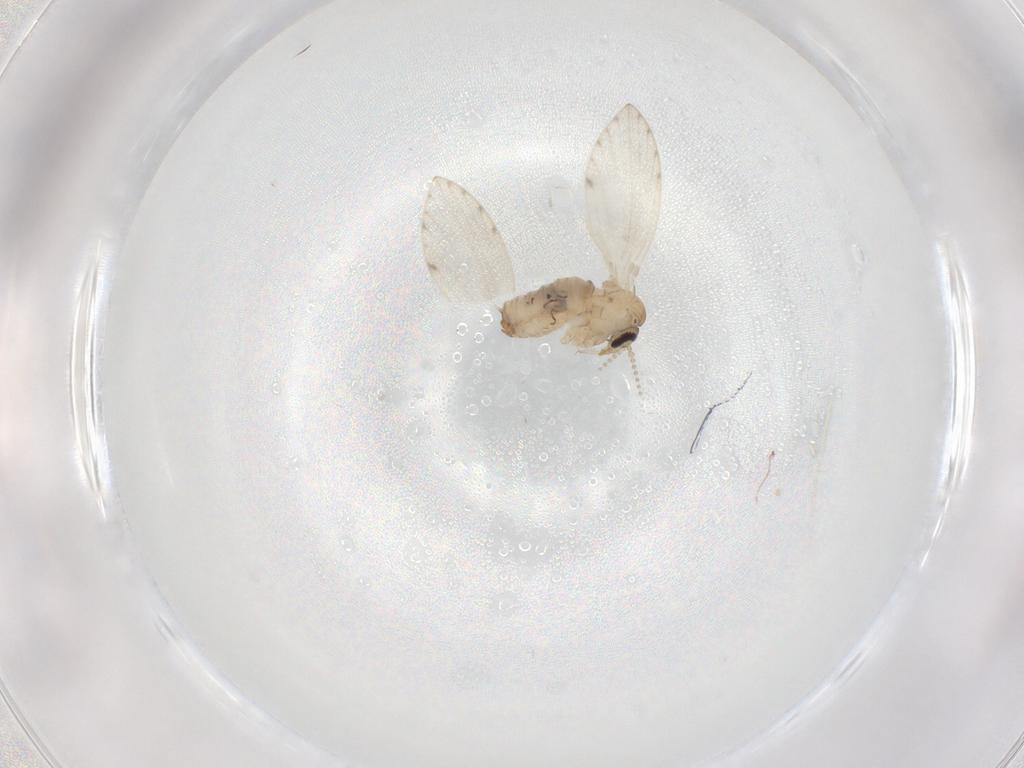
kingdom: Animalia
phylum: Arthropoda
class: Insecta
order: Diptera
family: Psychodidae
